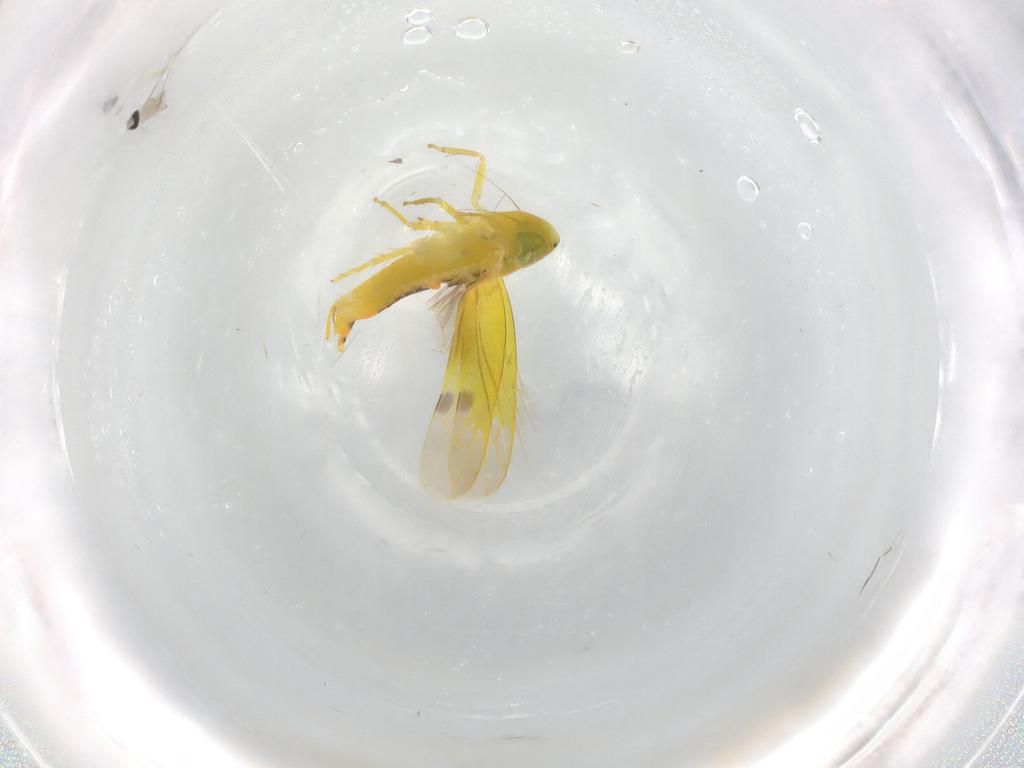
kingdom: Animalia
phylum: Arthropoda
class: Insecta
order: Hemiptera
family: Cicadellidae
